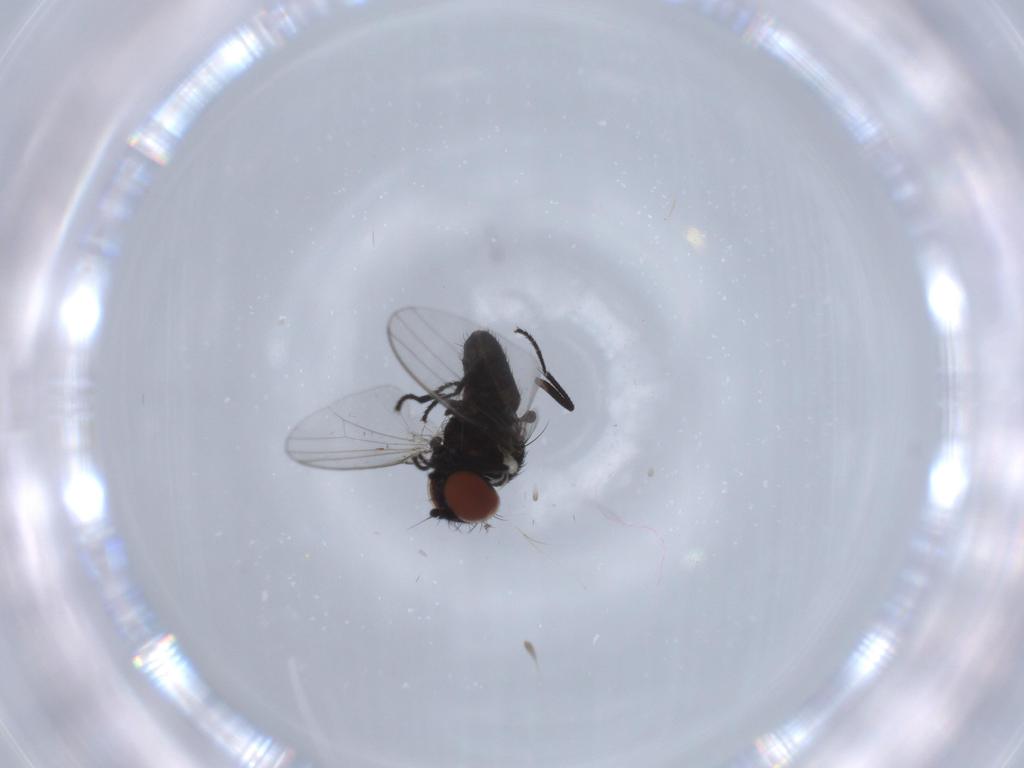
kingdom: Animalia
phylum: Arthropoda
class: Insecta
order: Diptera
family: Milichiidae
